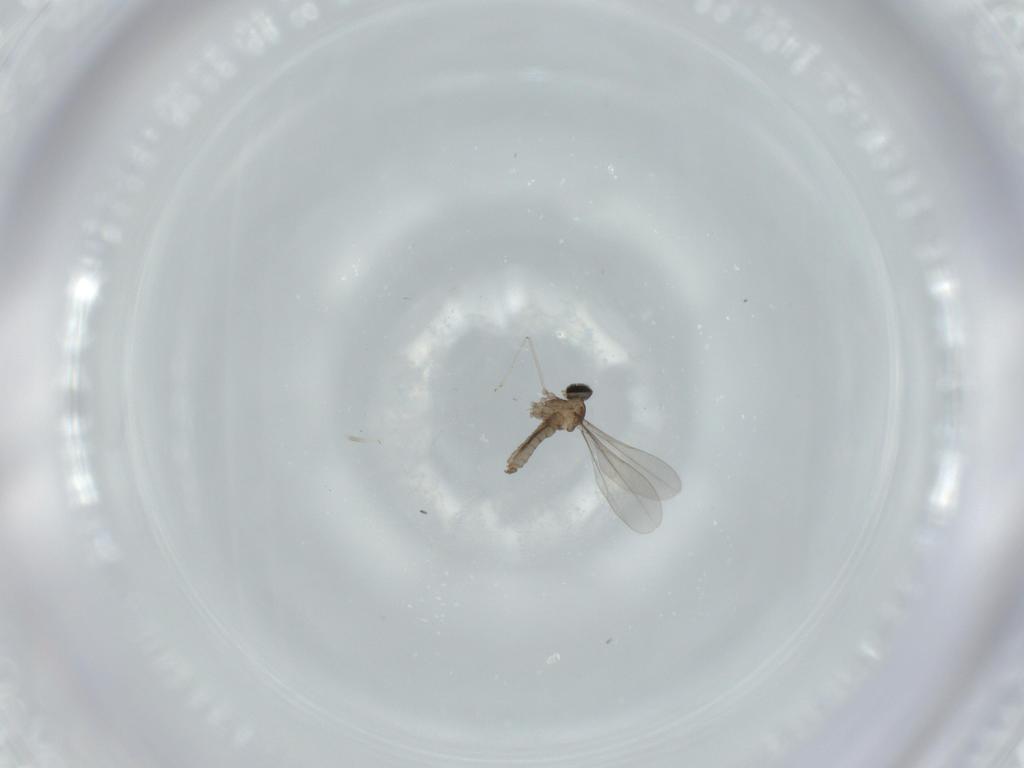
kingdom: Animalia
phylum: Arthropoda
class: Insecta
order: Diptera
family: Cecidomyiidae
